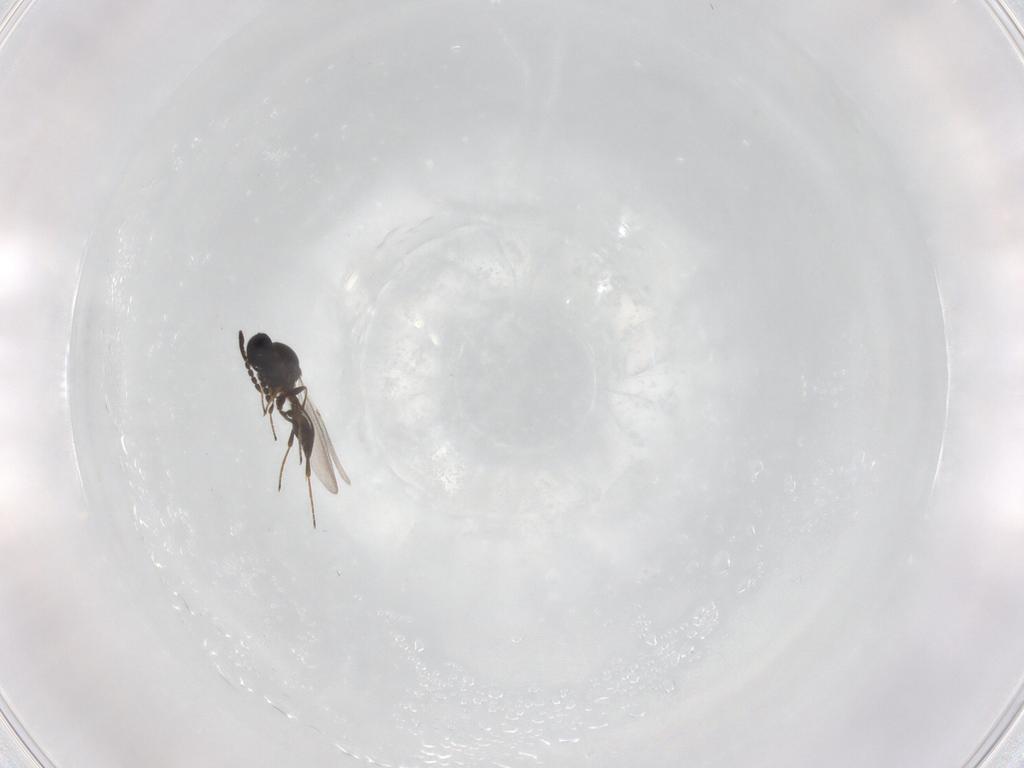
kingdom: Animalia
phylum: Arthropoda
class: Insecta
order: Hymenoptera
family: Platygastridae
